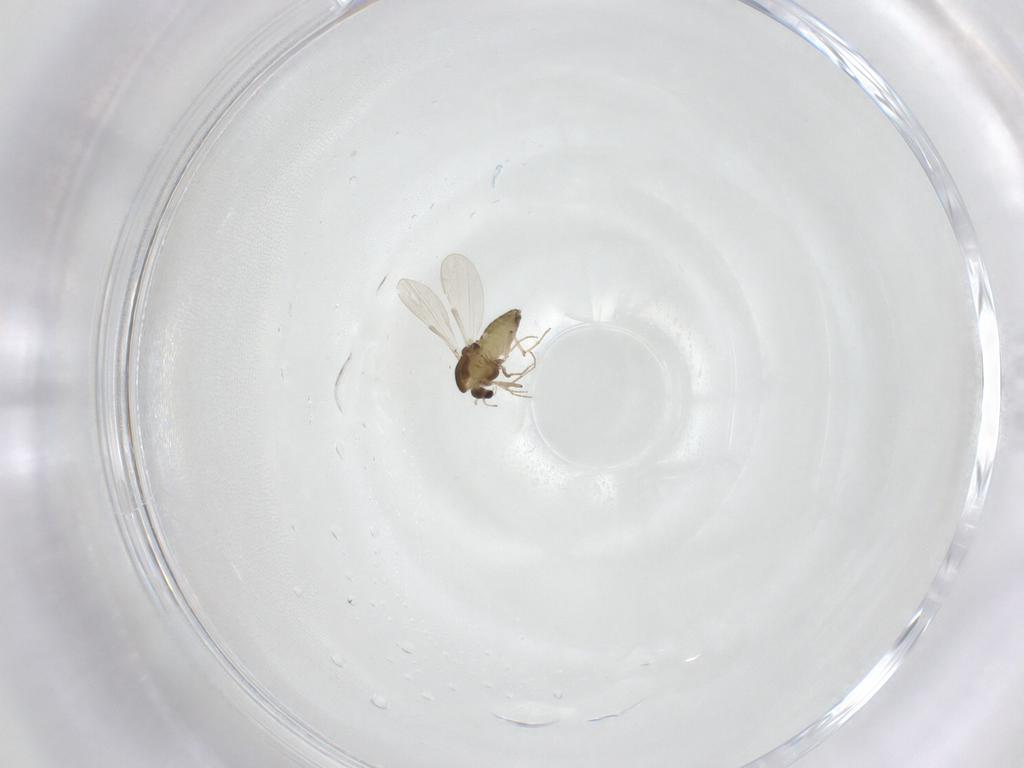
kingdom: Animalia
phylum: Arthropoda
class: Insecta
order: Diptera
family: Chironomidae
